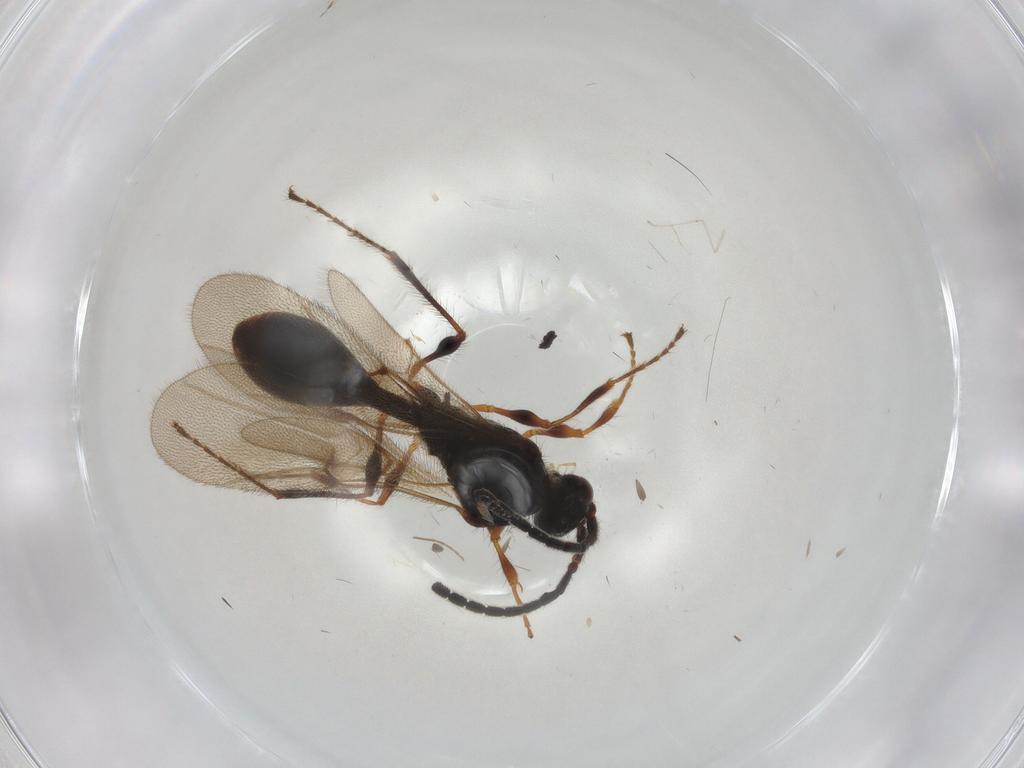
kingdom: Animalia
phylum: Arthropoda
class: Insecta
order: Hymenoptera
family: Diapriidae
